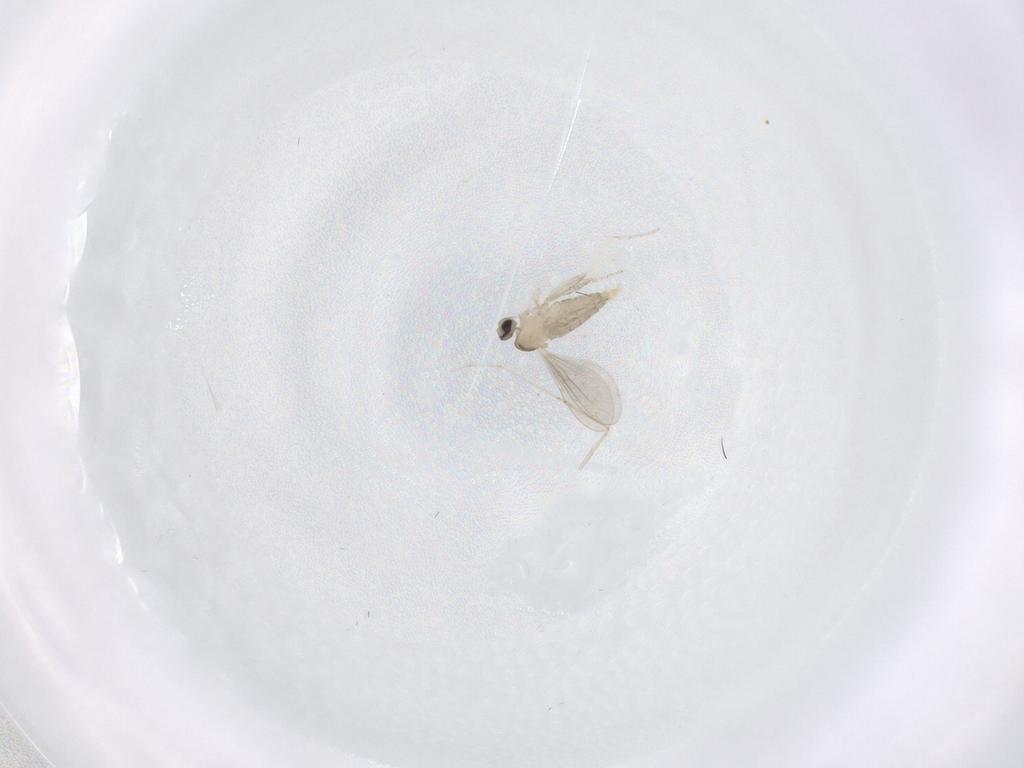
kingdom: Animalia
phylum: Arthropoda
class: Insecta
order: Diptera
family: Cecidomyiidae
